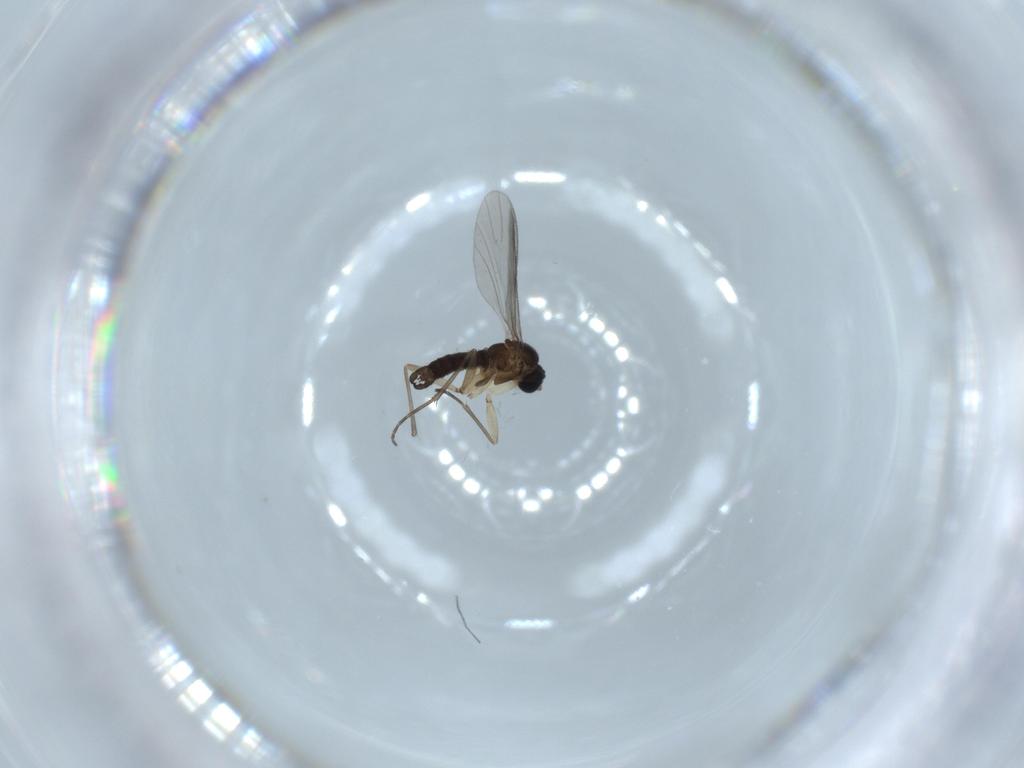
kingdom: Animalia
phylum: Arthropoda
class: Insecta
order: Diptera
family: Sciaridae
